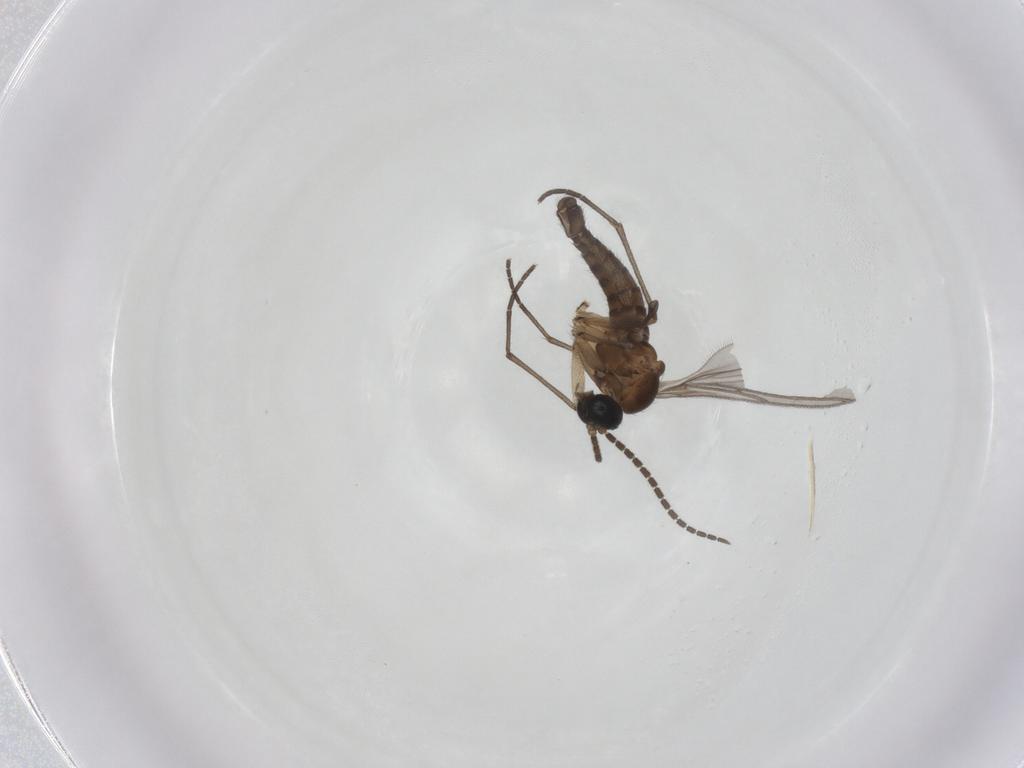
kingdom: Animalia
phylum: Arthropoda
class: Insecta
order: Diptera
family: Sciaridae
